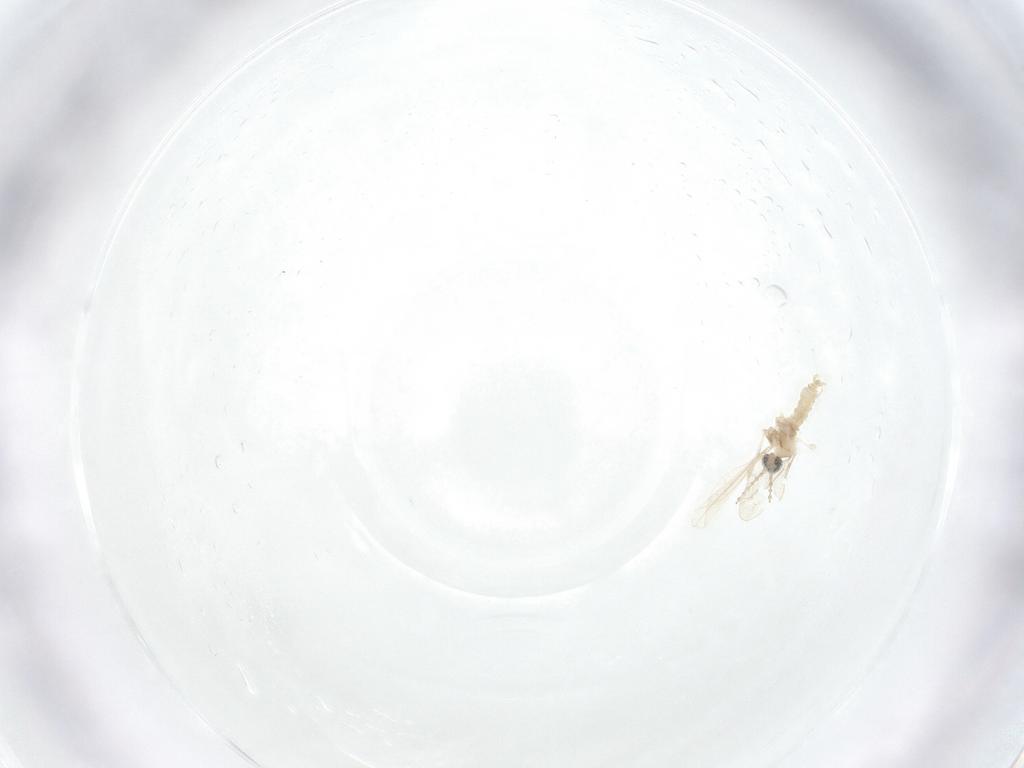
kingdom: Animalia
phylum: Arthropoda
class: Insecta
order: Diptera
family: Cecidomyiidae
